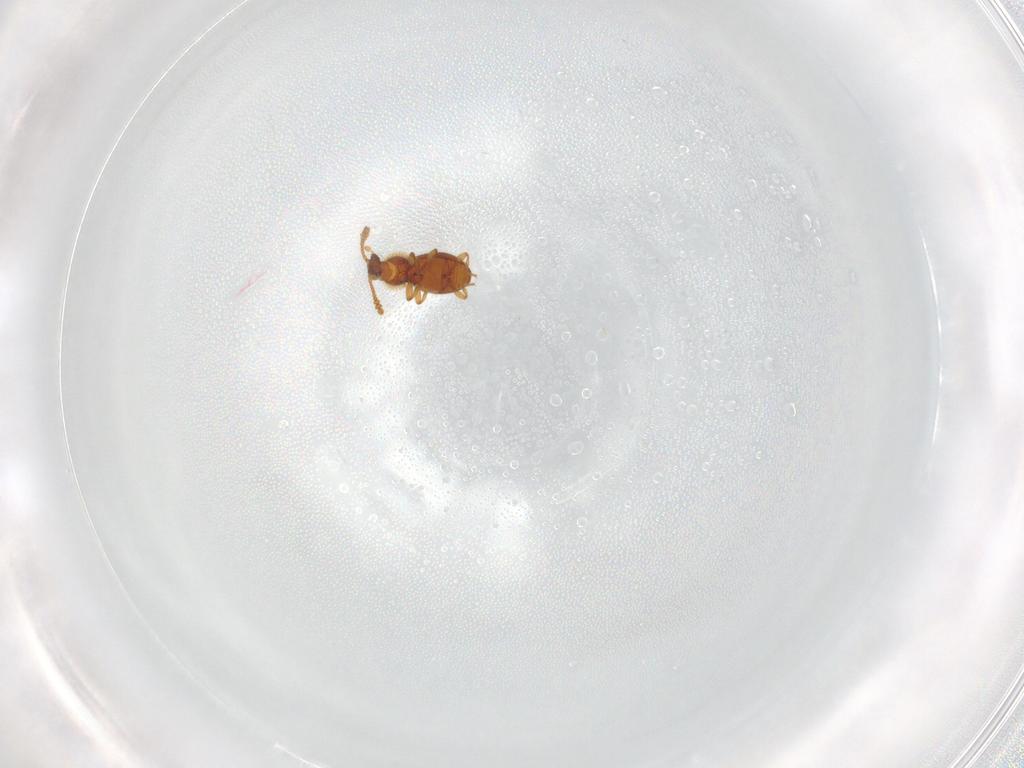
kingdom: Animalia
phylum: Arthropoda
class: Insecta
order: Coleoptera
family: Staphylinidae
